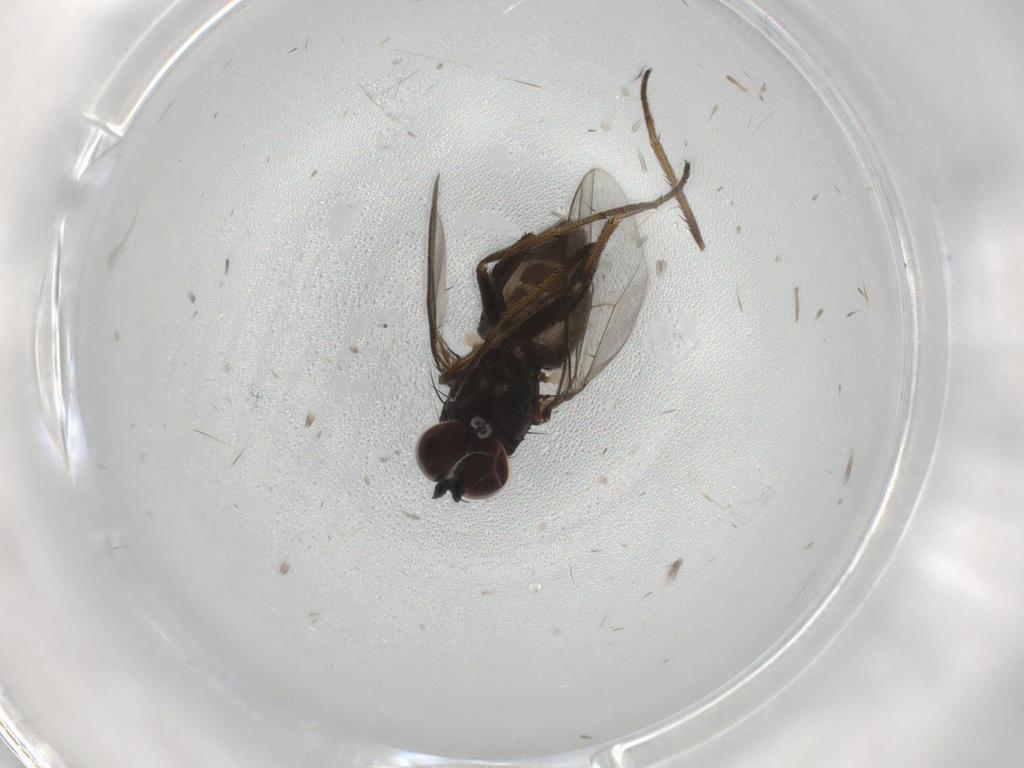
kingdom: Animalia
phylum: Arthropoda
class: Insecta
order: Diptera
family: Dolichopodidae
